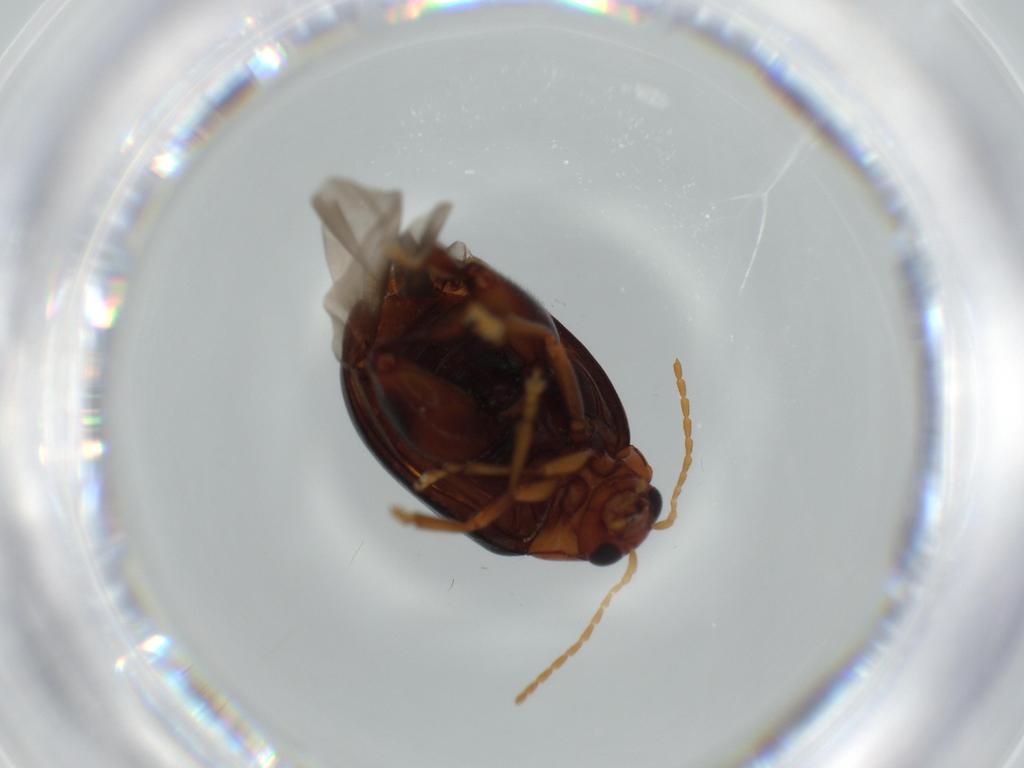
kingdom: Animalia
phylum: Arthropoda
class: Insecta
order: Coleoptera
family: Chrysomelidae
